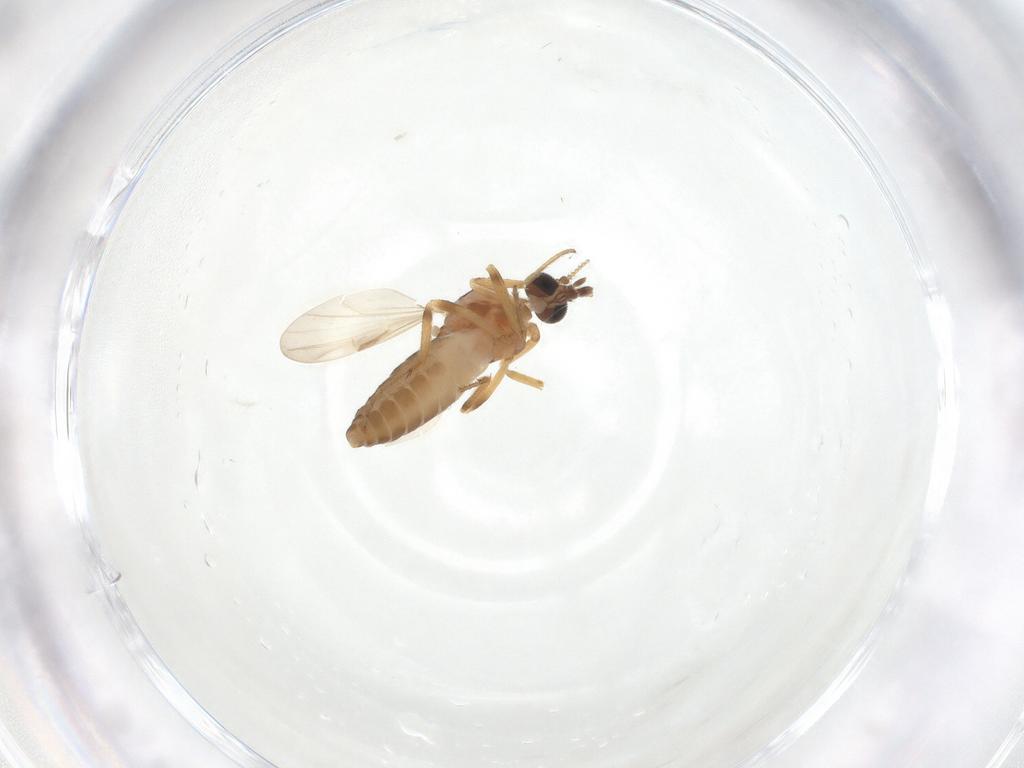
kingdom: Animalia
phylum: Arthropoda
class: Insecta
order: Diptera
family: Ceratopogonidae
